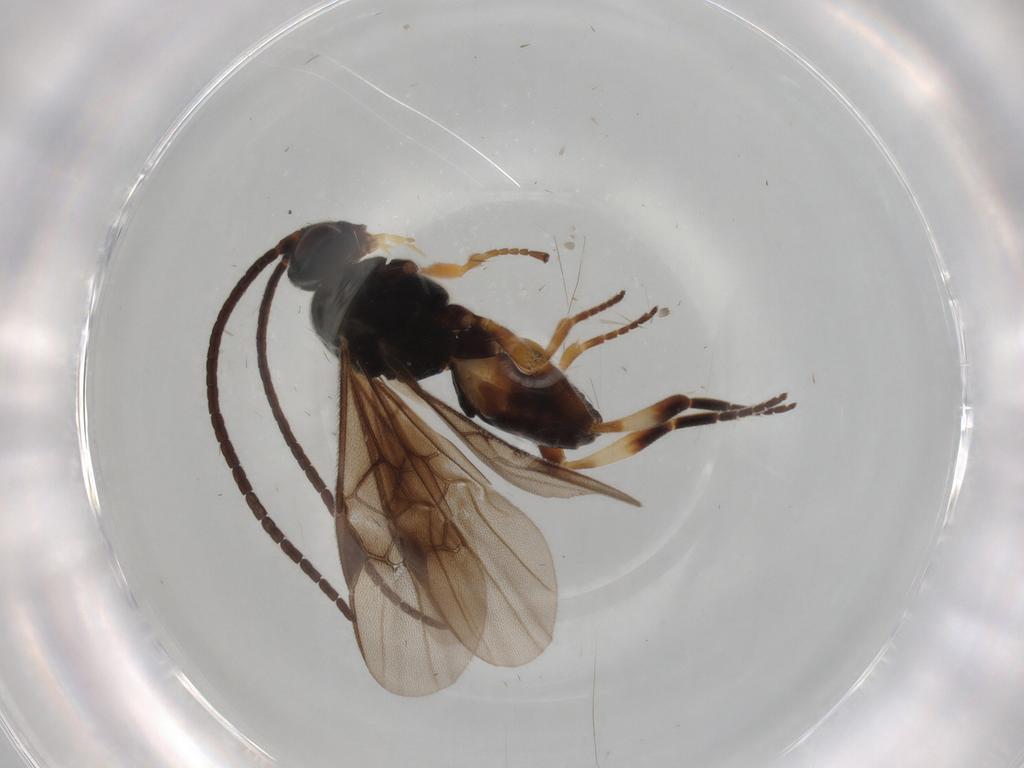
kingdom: Animalia
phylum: Arthropoda
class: Insecta
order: Hymenoptera
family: Braconidae
